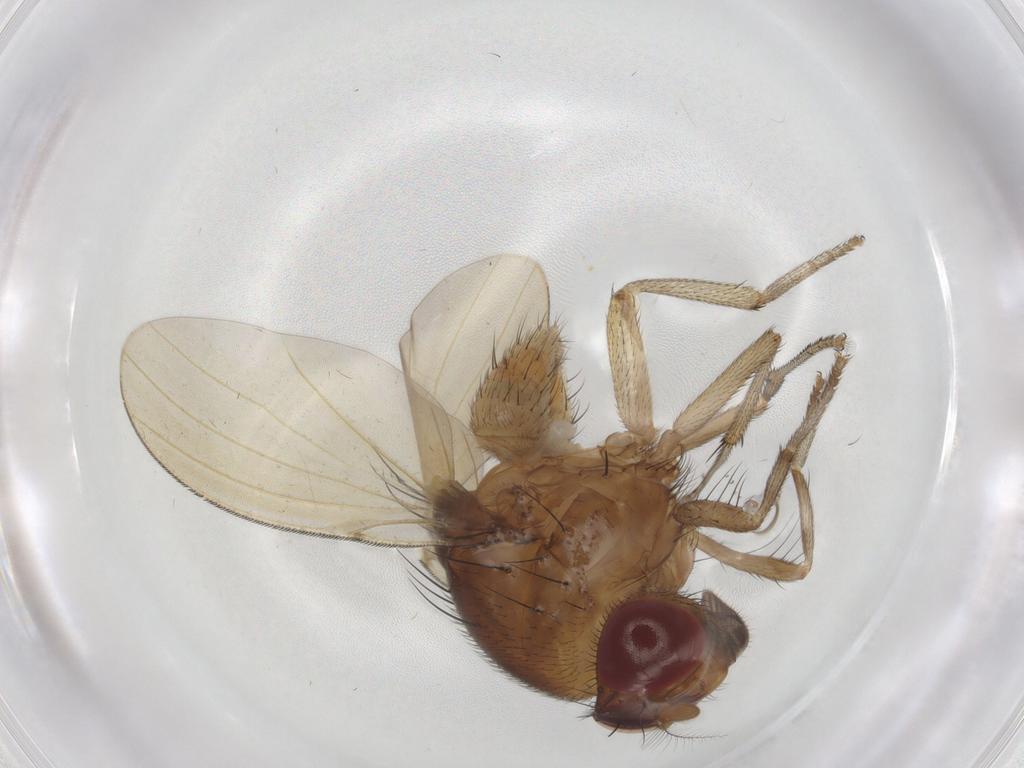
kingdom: Animalia
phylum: Arthropoda
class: Insecta
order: Diptera
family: Lauxaniidae
